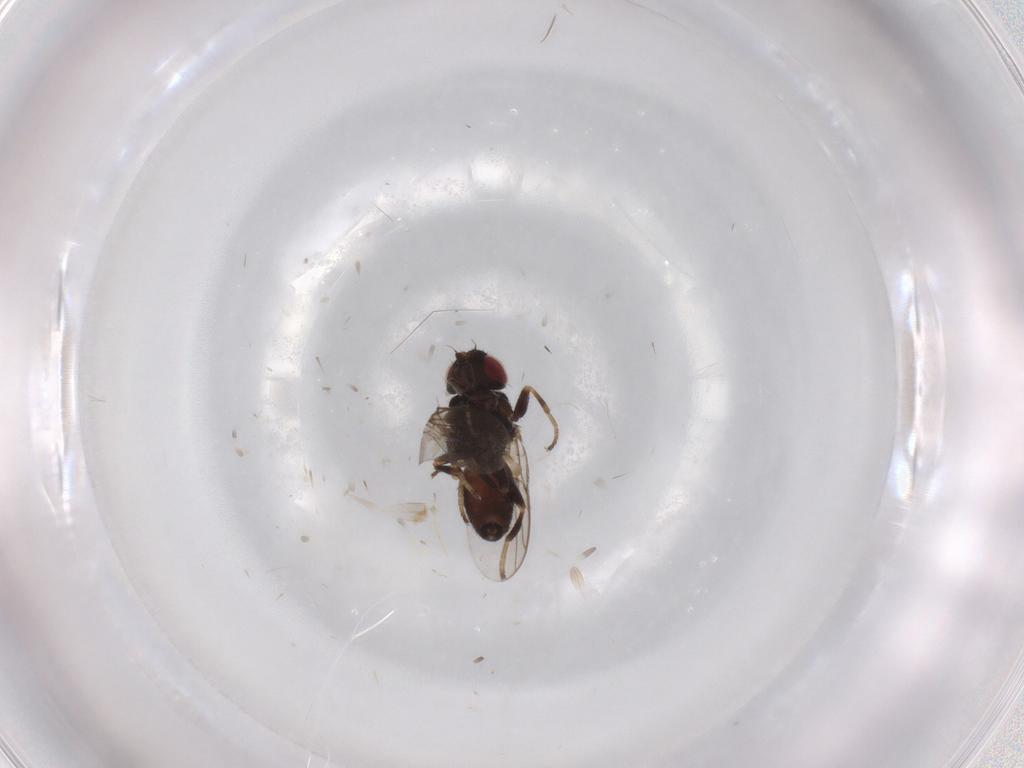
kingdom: Animalia
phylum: Arthropoda
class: Insecta
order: Diptera
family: Chloropidae
